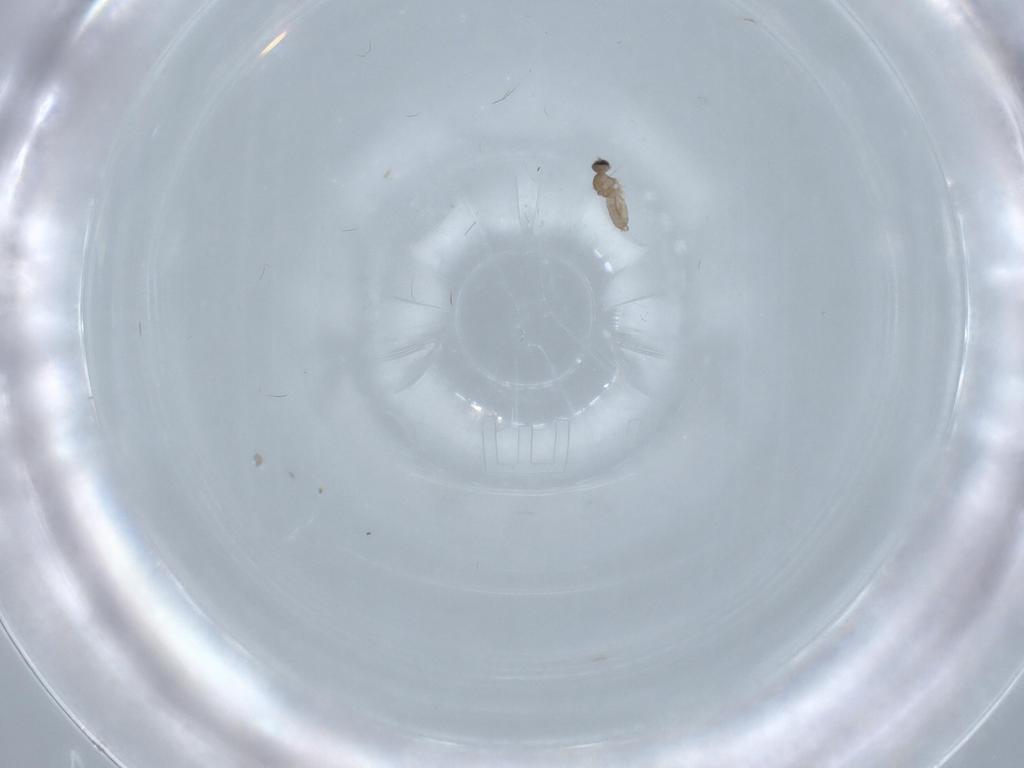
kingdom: Animalia
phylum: Arthropoda
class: Insecta
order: Diptera
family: Cecidomyiidae
